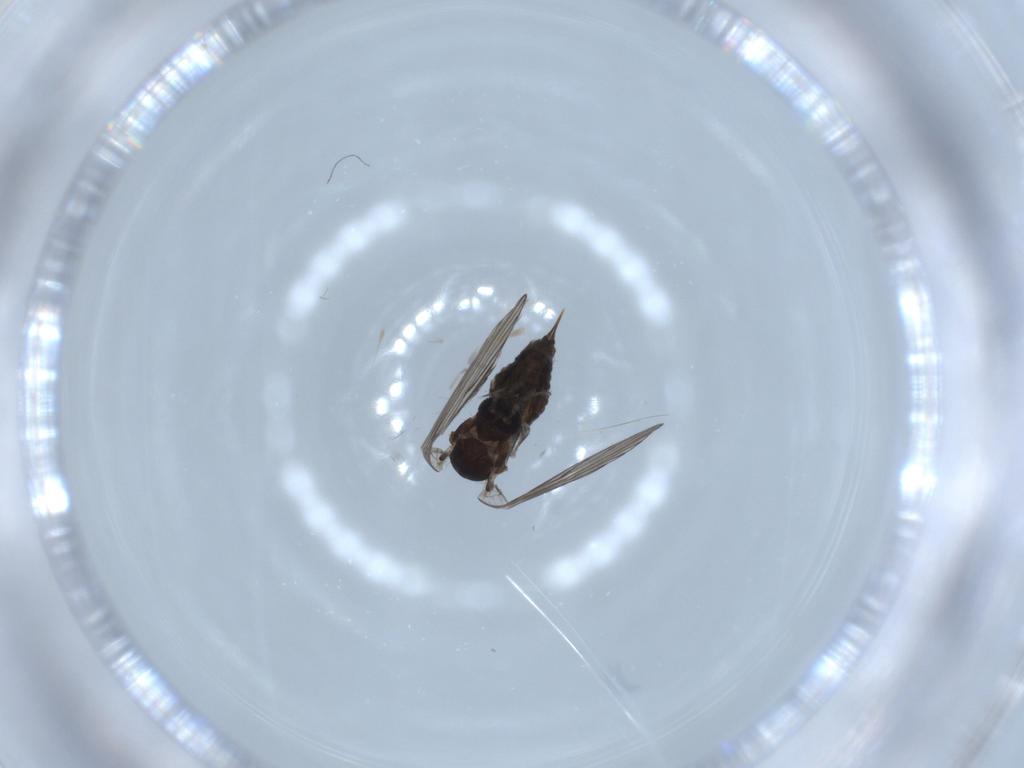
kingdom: Animalia
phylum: Arthropoda
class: Insecta
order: Diptera
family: Psychodidae
